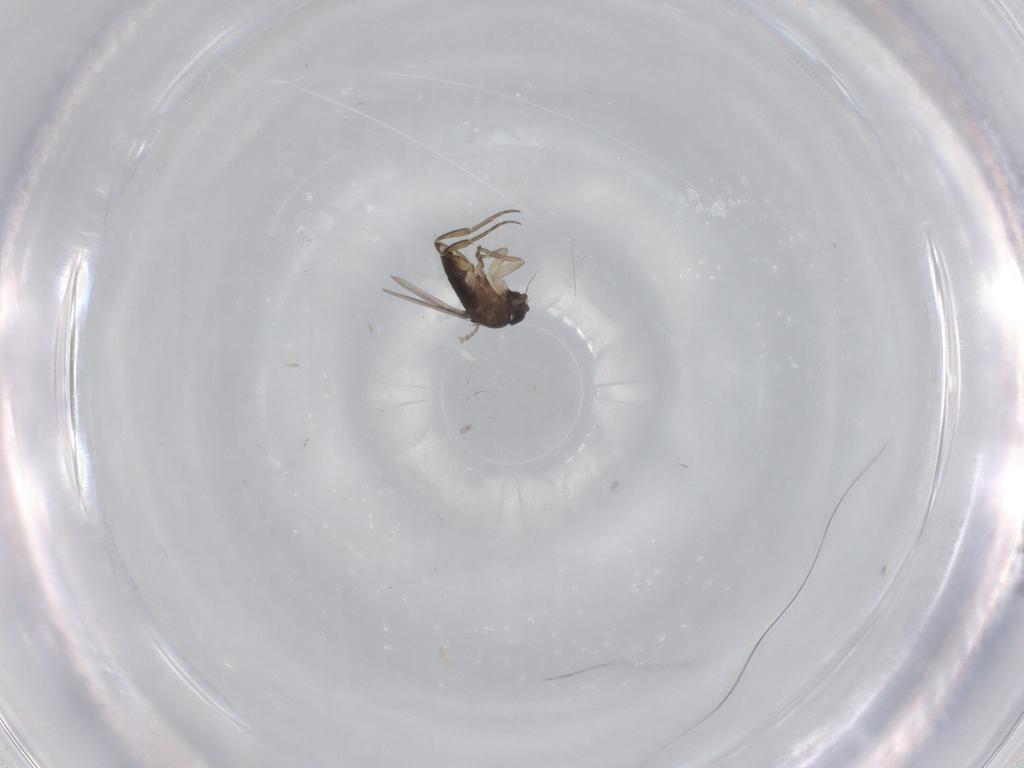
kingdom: Animalia
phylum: Arthropoda
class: Insecta
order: Diptera
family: Phoridae
